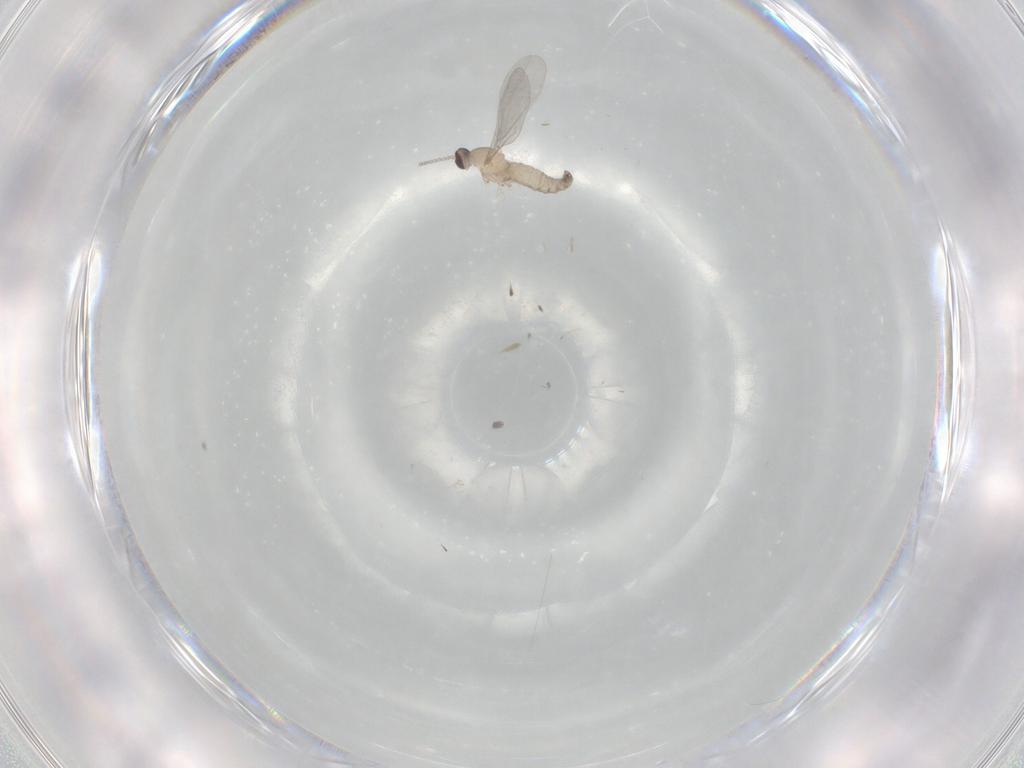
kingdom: Animalia
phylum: Arthropoda
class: Insecta
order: Diptera
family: Cecidomyiidae
